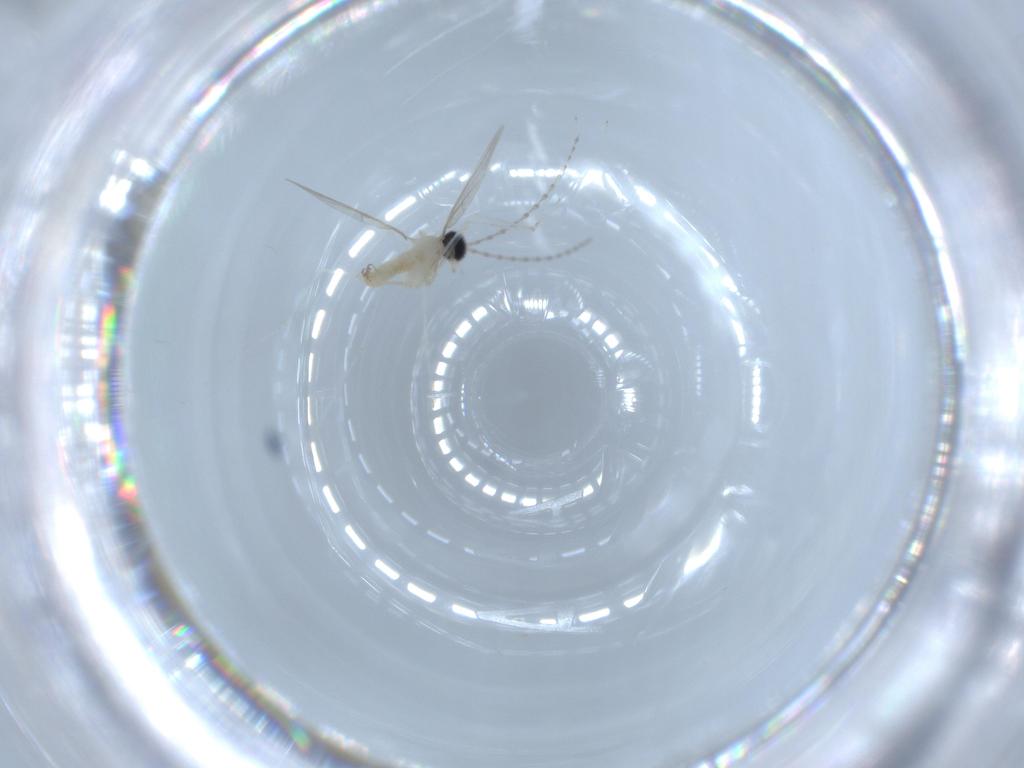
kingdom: Animalia
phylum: Arthropoda
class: Insecta
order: Diptera
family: Cecidomyiidae
